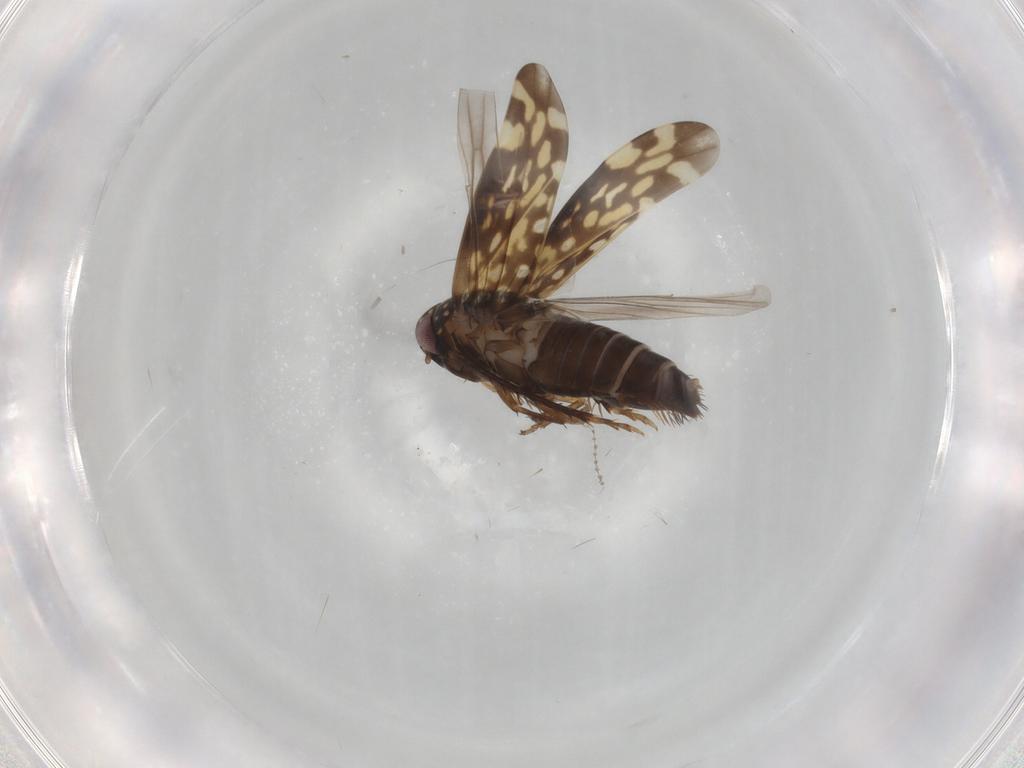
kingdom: Animalia
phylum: Arthropoda
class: Insecta
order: Hemiptera
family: Cicadellidae
